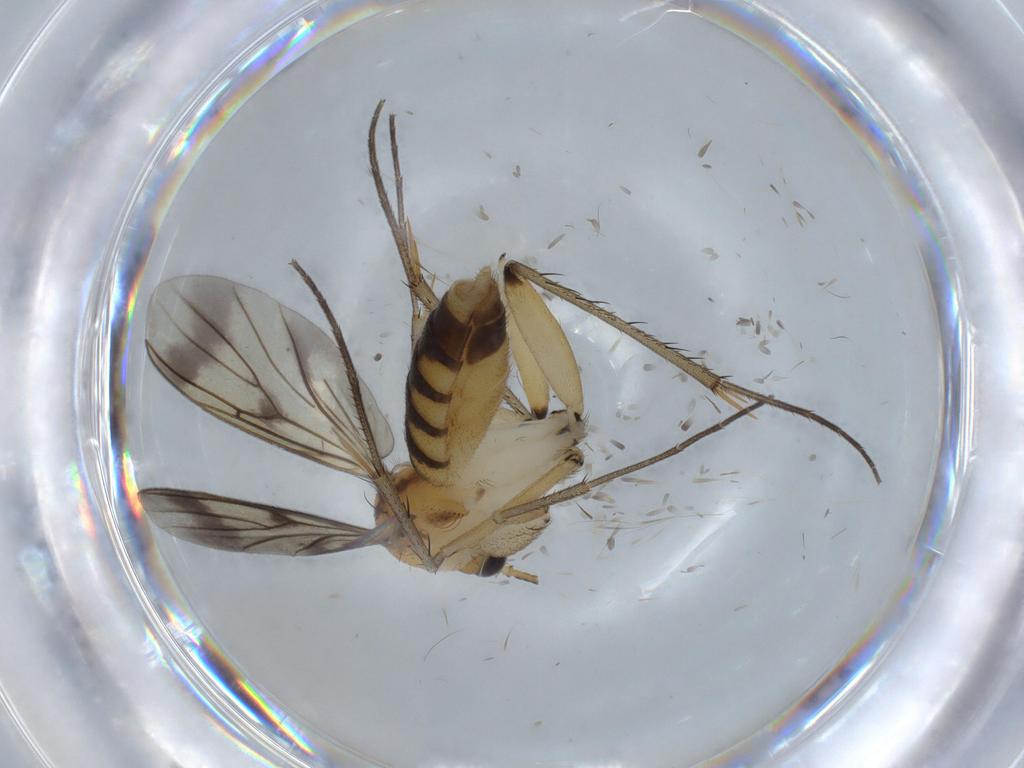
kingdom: Animalia
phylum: Arthropoda
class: Insecta
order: Diptera
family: Mycetophilidae
